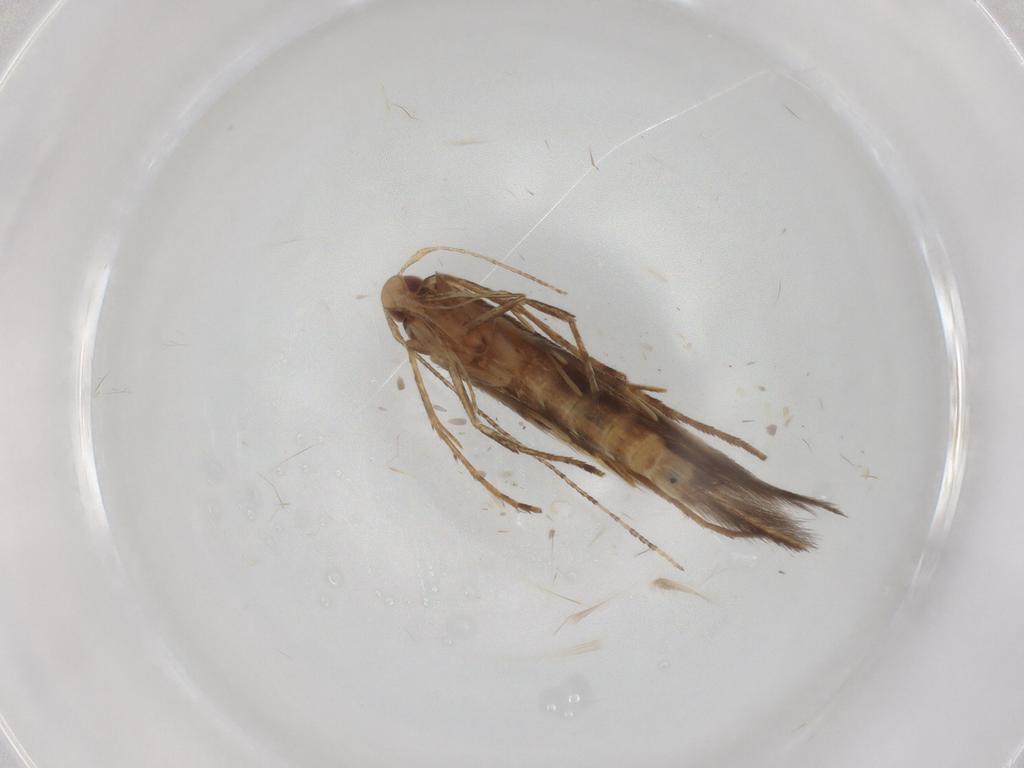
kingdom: Animalia
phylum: Arthropoda
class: Insecta
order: Lepidoptera
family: Cosmopterigidae
